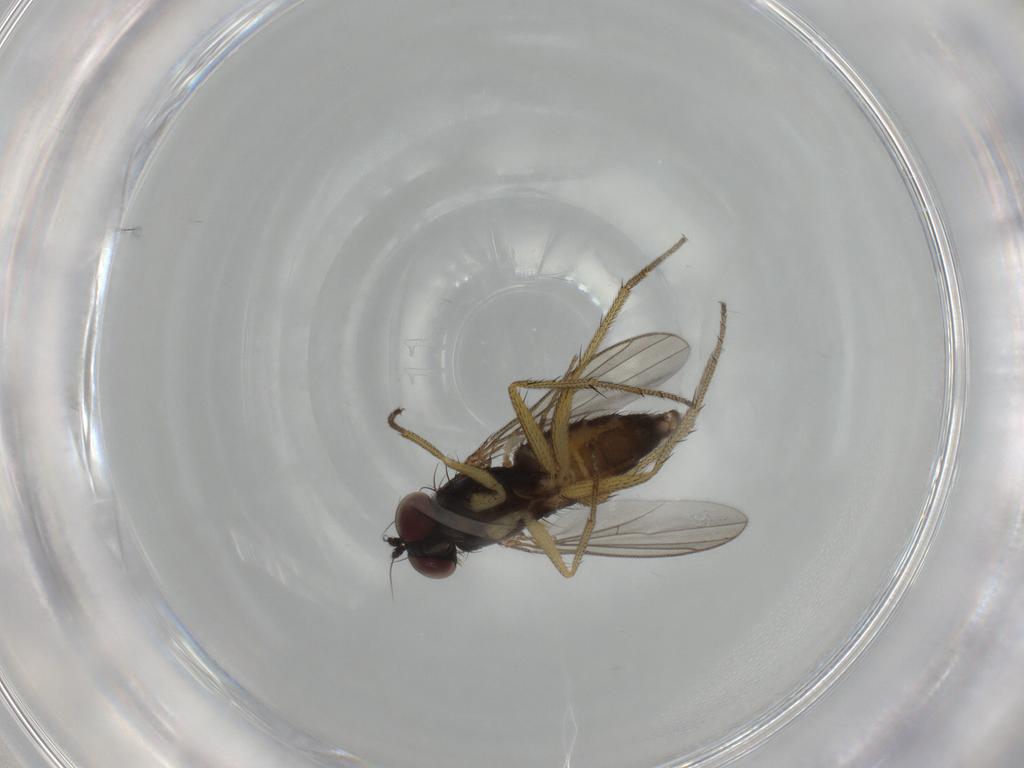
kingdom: Animalia
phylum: Arthropoda
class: Insecta
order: Diptera
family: Dolichopodidae
